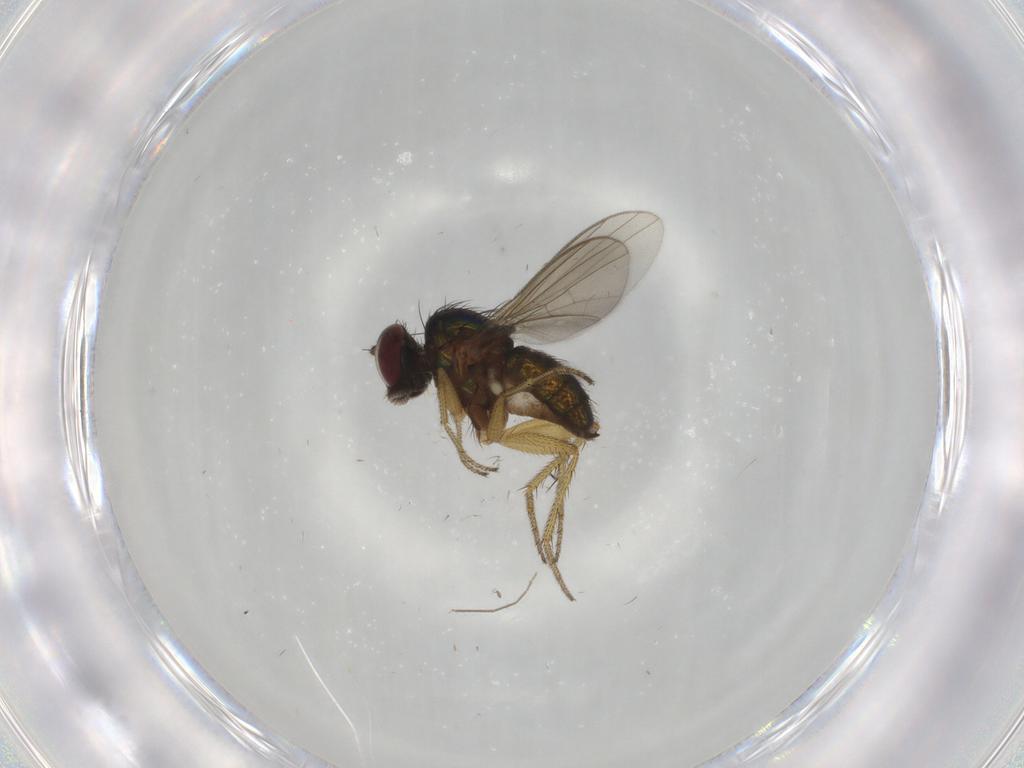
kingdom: Animalia
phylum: Arthropoda
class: Insecta
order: Diptera
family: Dolichopodidae
